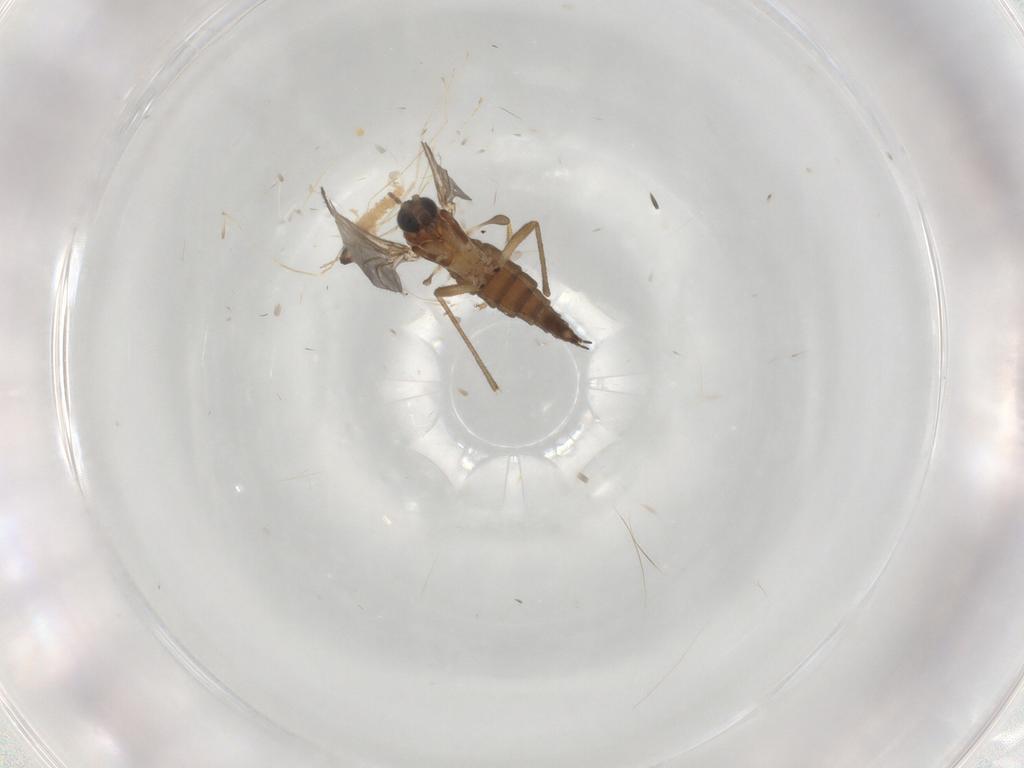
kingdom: Animalia
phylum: Arthropoda
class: Insecta
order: Diptera
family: Sciaridae
